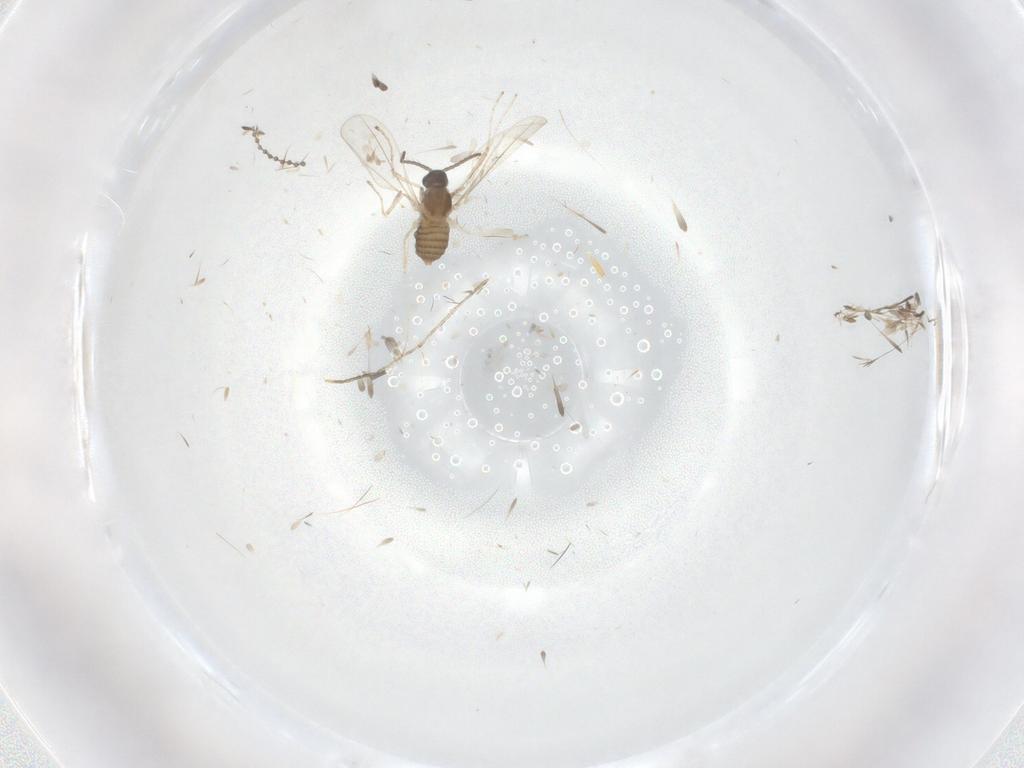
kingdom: Animalia
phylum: Arthropoda
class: Insecta
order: Diptera
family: Cecidomyiidae
